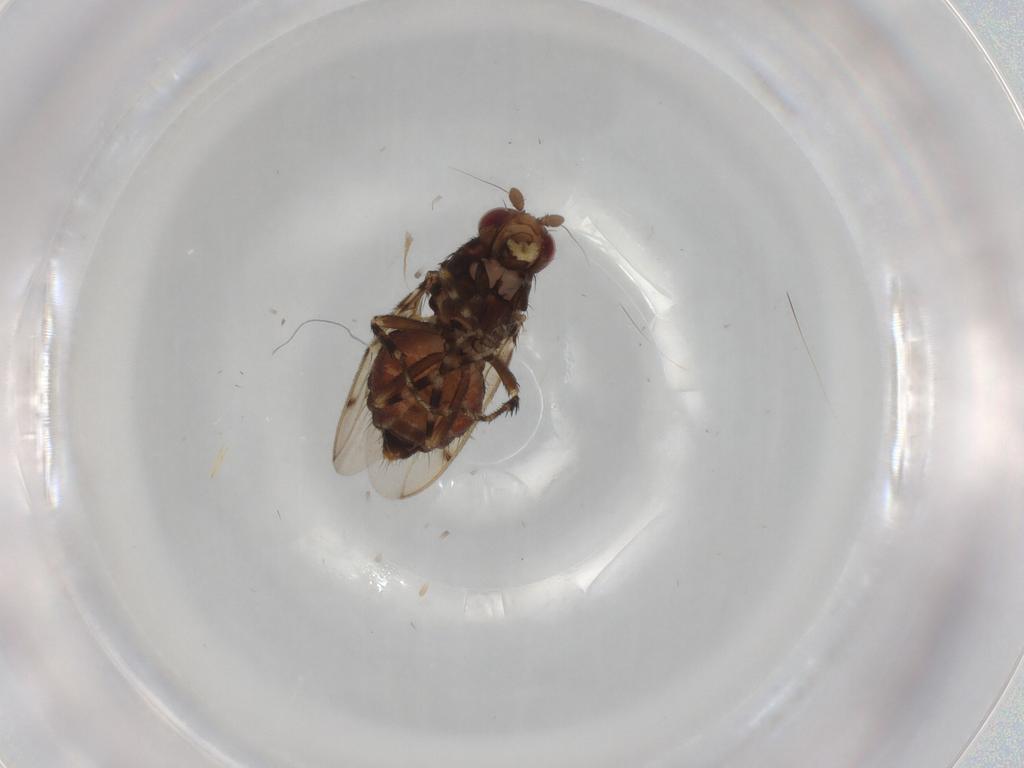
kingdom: Animalia
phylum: Arthropoda
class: Insecta
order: Diptera
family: Sphaeroceridae
